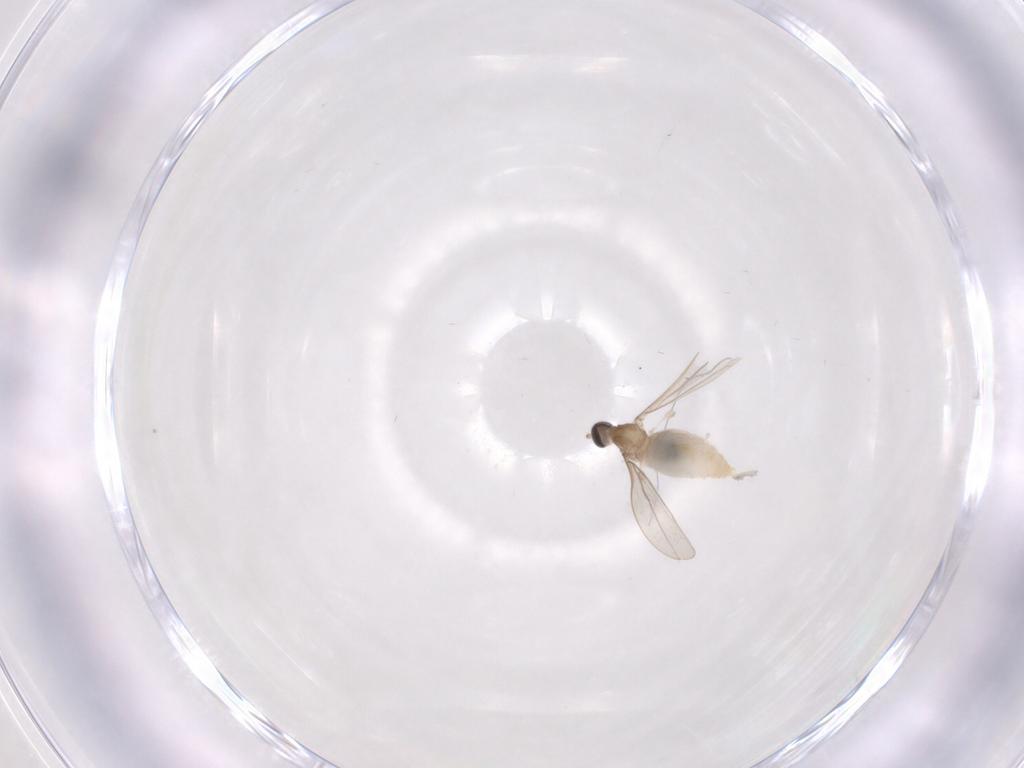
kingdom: Animalia
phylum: Arthropoda
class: Insecta
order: Diptera
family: Cecidomyiidae
